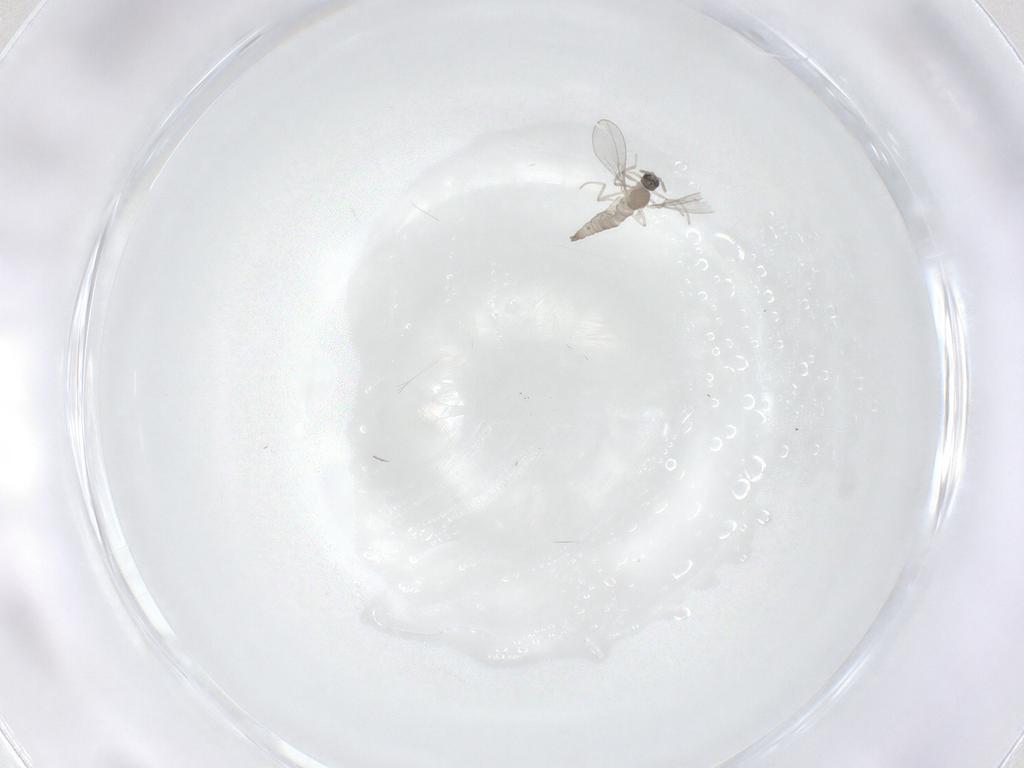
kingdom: Animalia
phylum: Arthropoda
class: Insecta
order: Diptera
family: Cecidomyiidae
